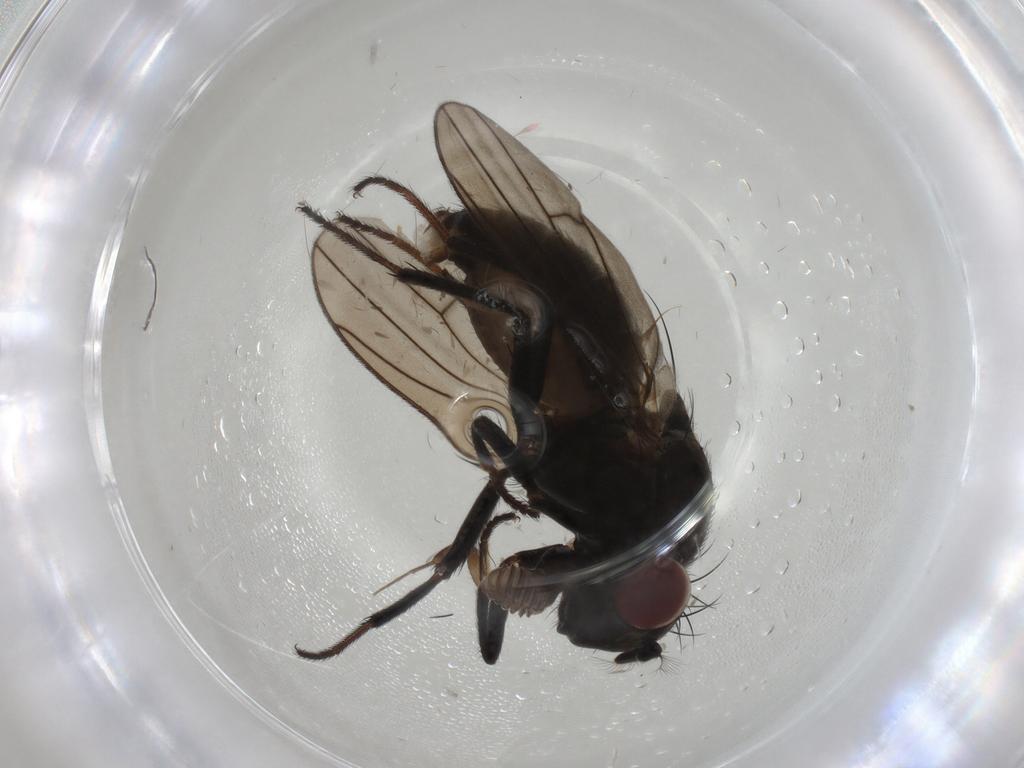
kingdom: Animalia
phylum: Arthropoda
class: Insecta
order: Diptera
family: Ephydridae
